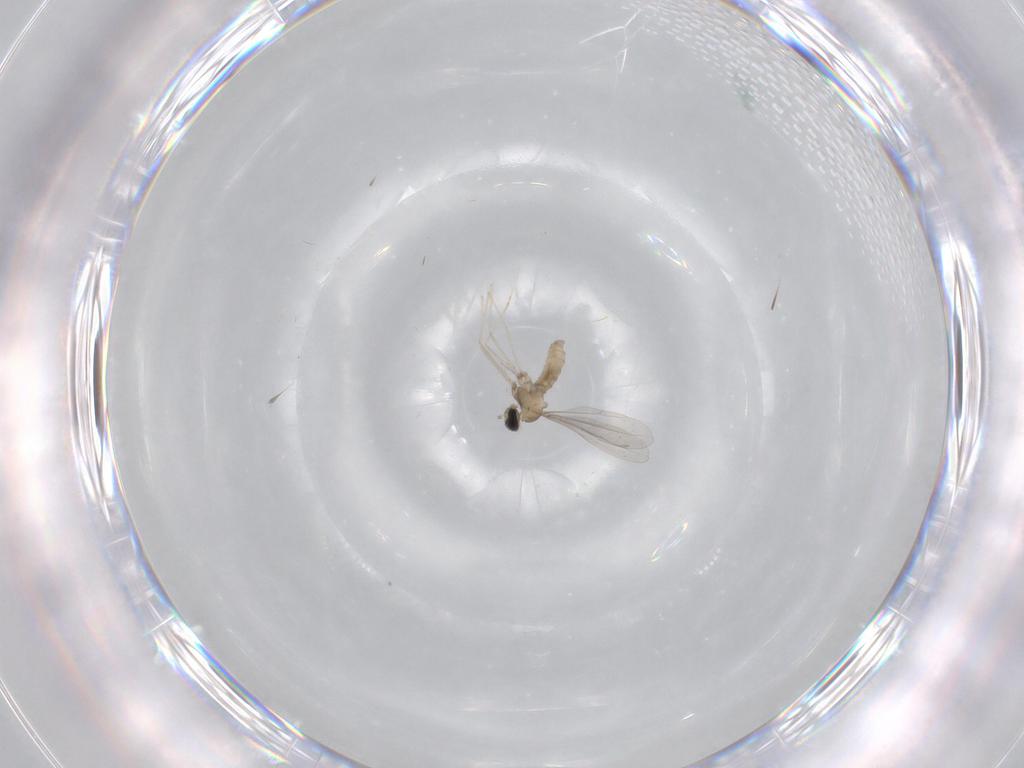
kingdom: Animalia
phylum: Arthropoda
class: Insecta
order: Diptera
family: Cecidomyiidae
